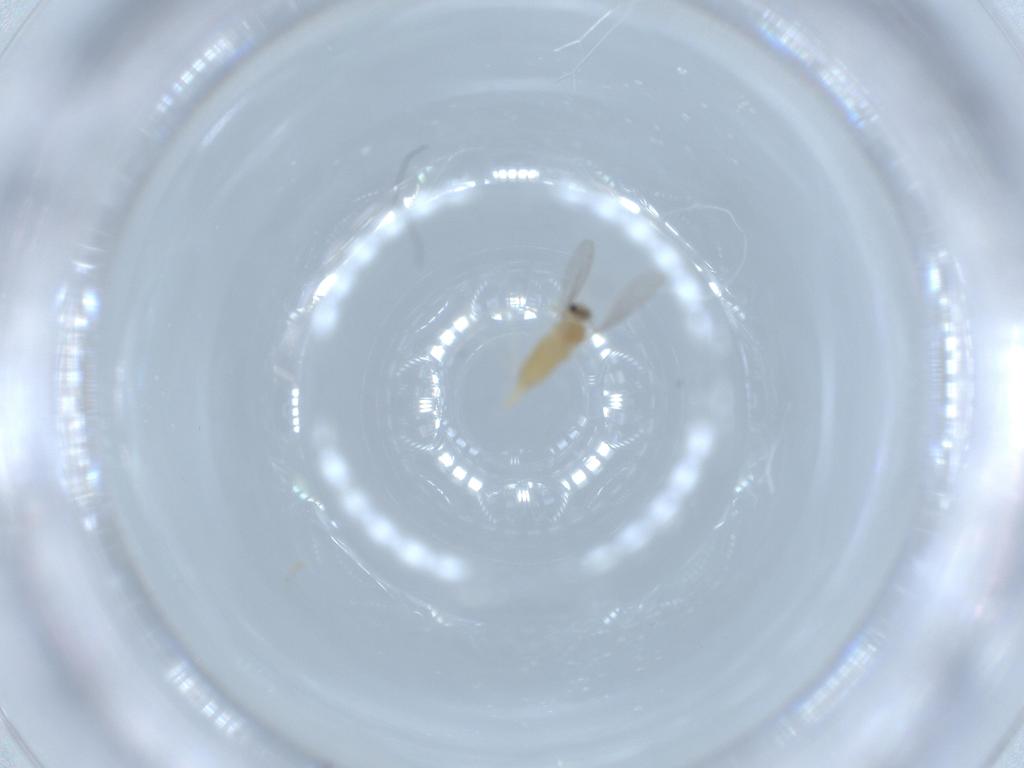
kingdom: Animalia
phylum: Arthropoda
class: Insecta
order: Diptera
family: Cecidomyiidae
